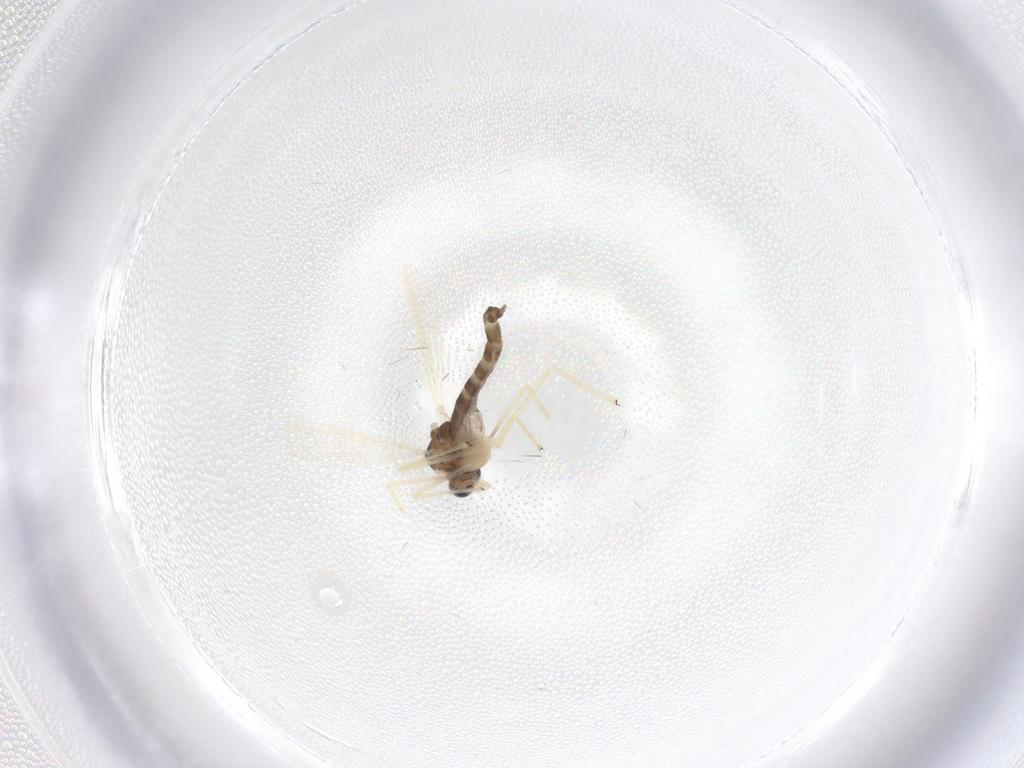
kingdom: Animalia
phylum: Arthropoda
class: Insecta
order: Diptera
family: Chironomidae
